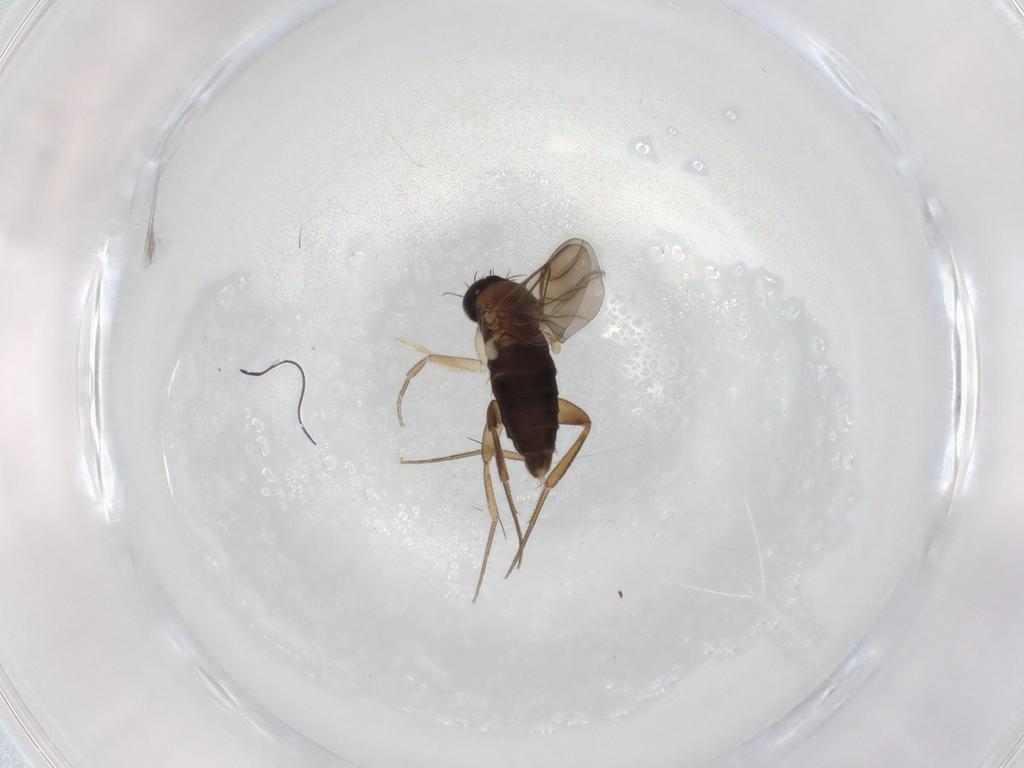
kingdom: Animalia
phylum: Arthropoda
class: Insecta
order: Diptera
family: Phoridae
